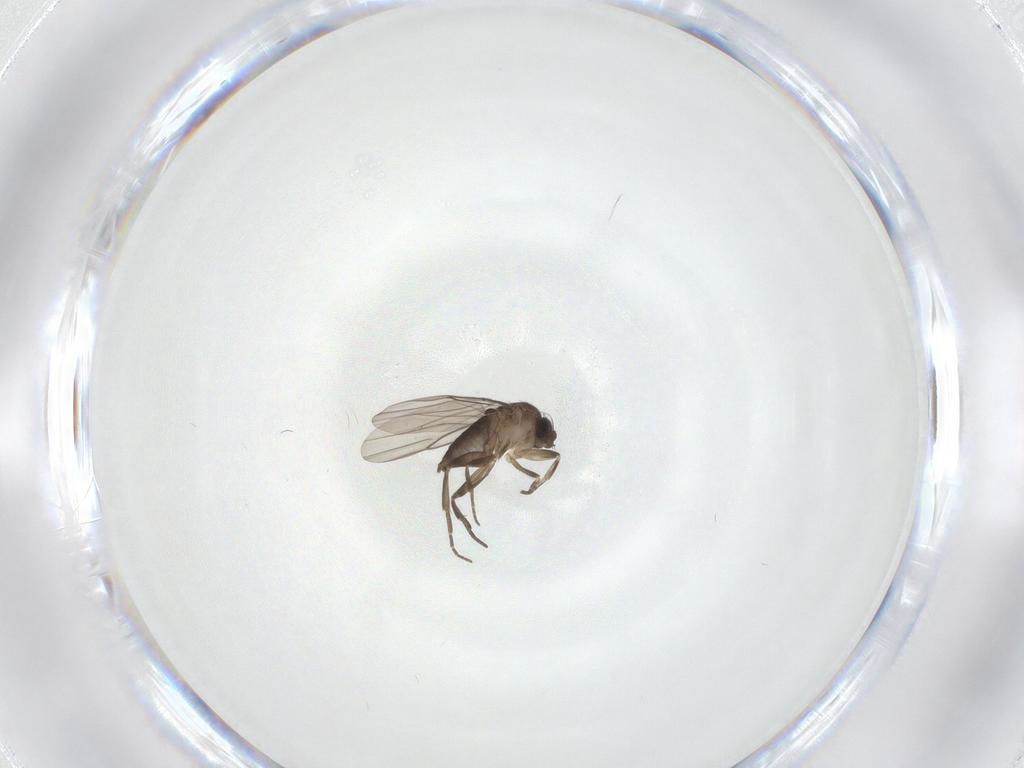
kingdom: Animalia
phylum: Arthropoda
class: Insecta
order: Diptera
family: Phoridae
